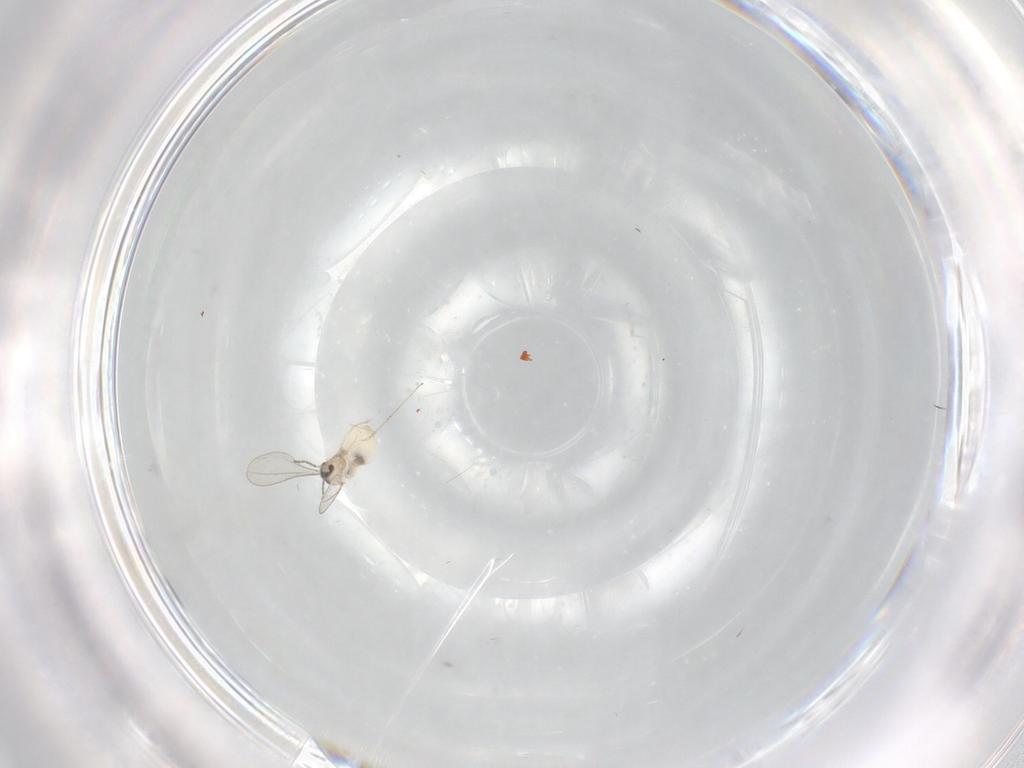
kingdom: Animalia
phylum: Arthropoda
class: Insecta
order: Diptera
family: Cecidomyiidae
